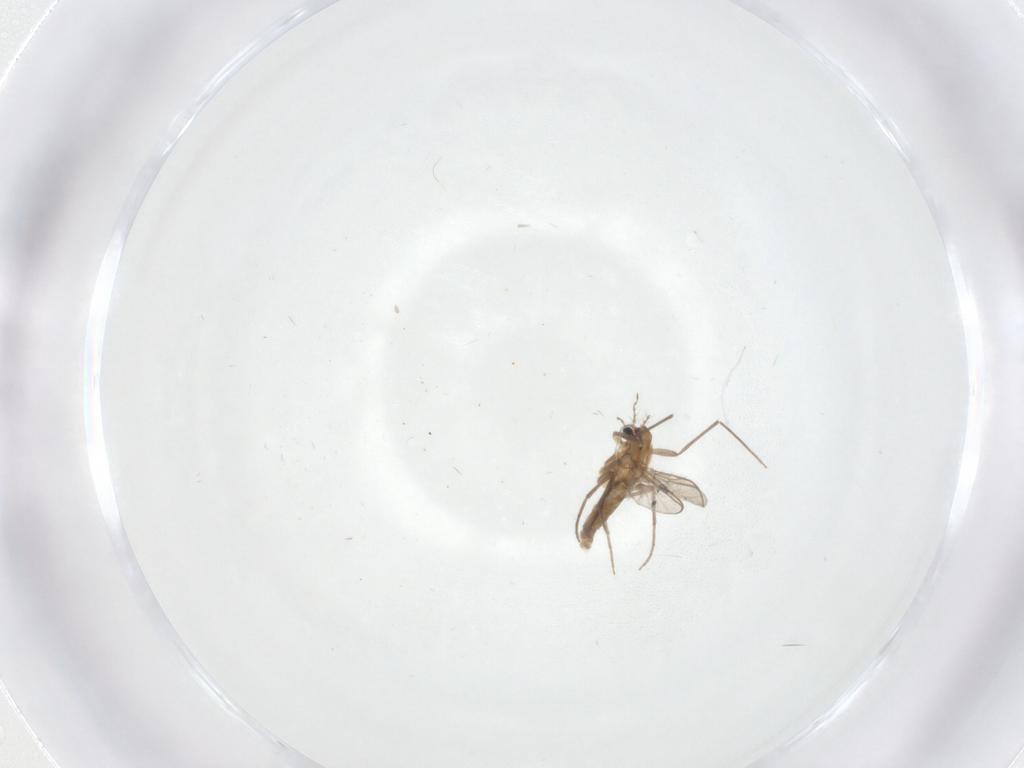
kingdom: Animalia
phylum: Arthropoda
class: Insecta
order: Diptera
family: Chironomidae
